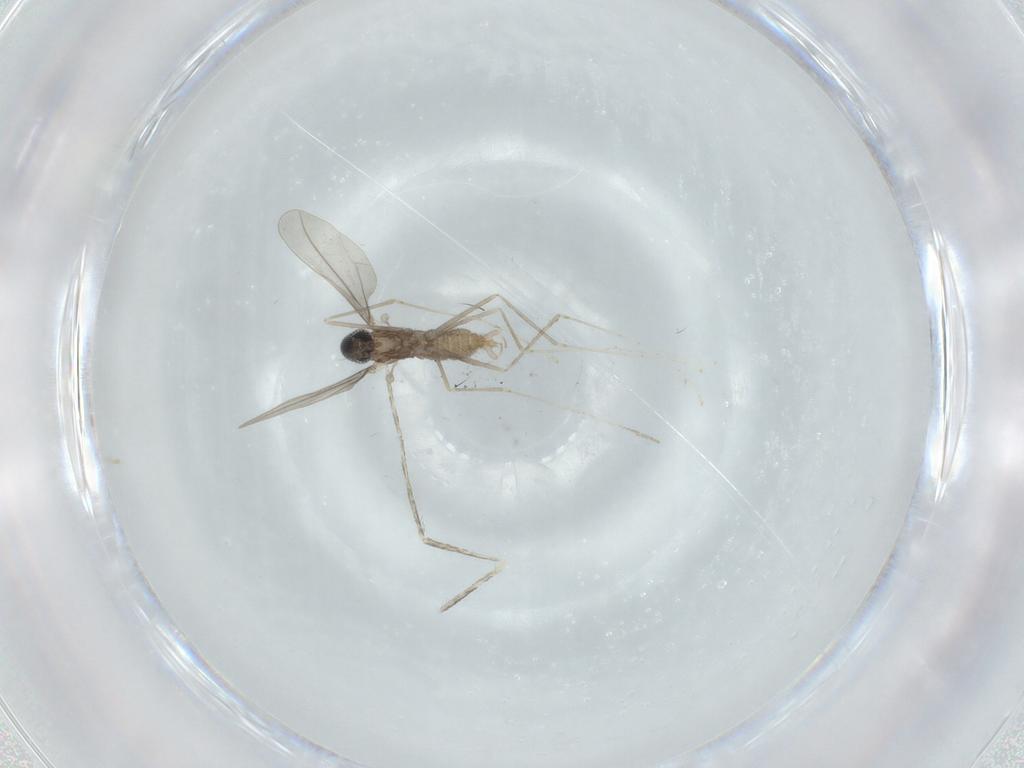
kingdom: Animalia
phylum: Arthropoda
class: Insecta
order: Diptera
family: Cecidomyiidae
